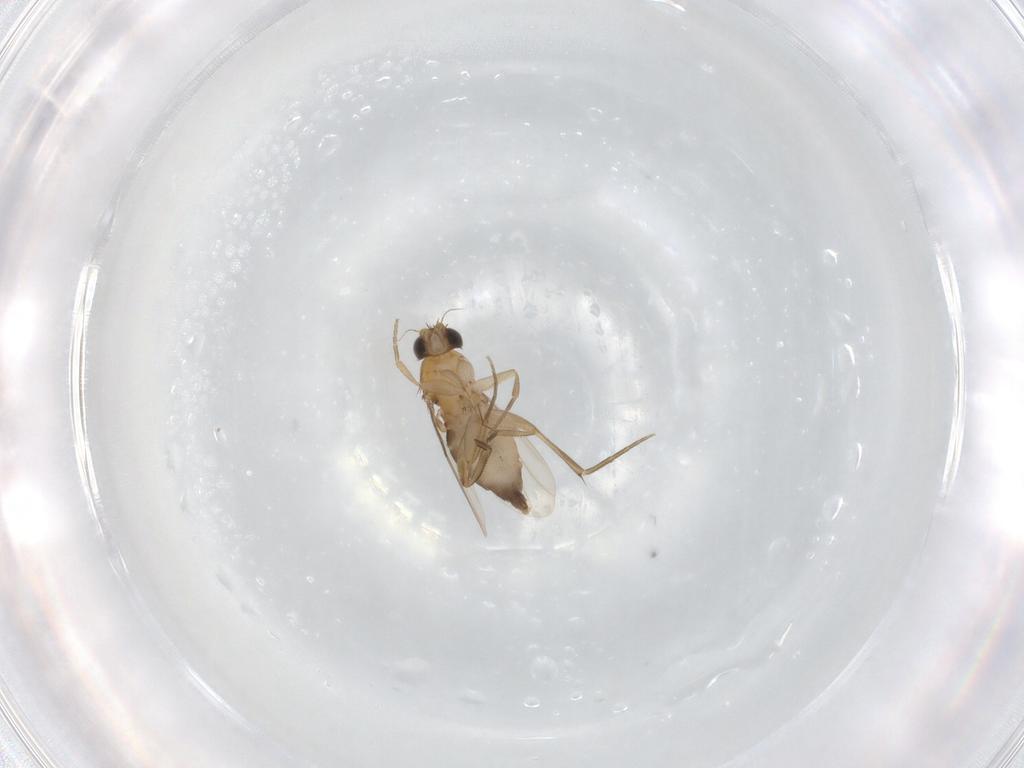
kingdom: Animalia
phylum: Arthropoda
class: Insecta
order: Diptera
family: Phoridae
